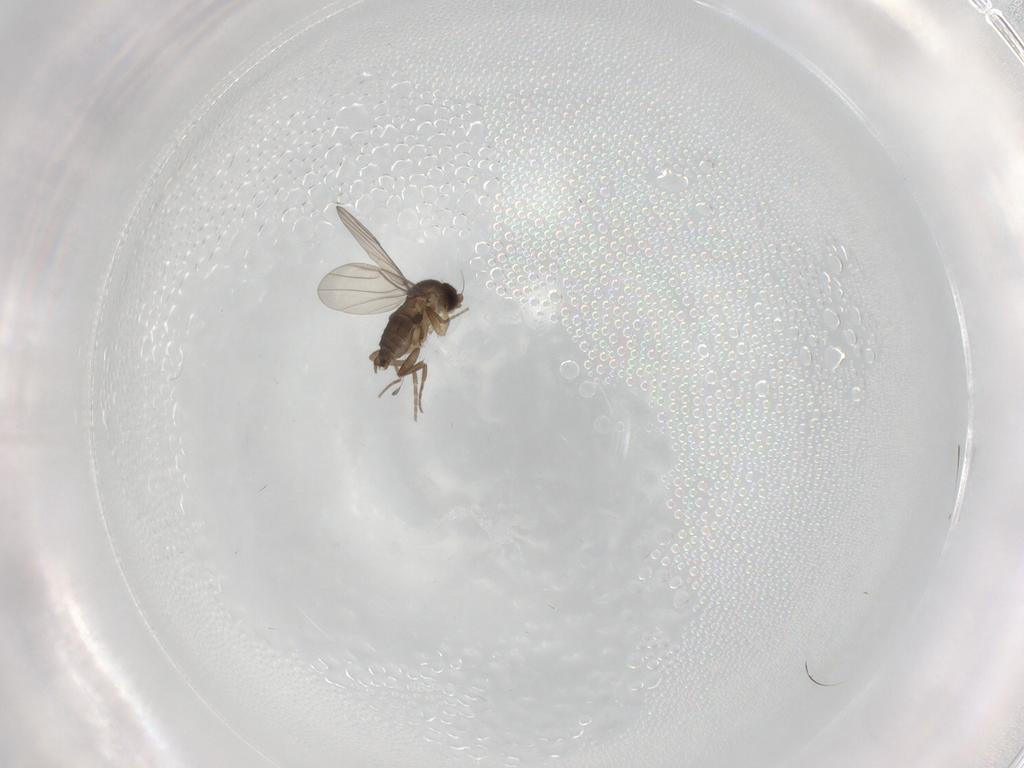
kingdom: Animalia
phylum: Arthropoda
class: Insecta
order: Diptera
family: Phoridae
